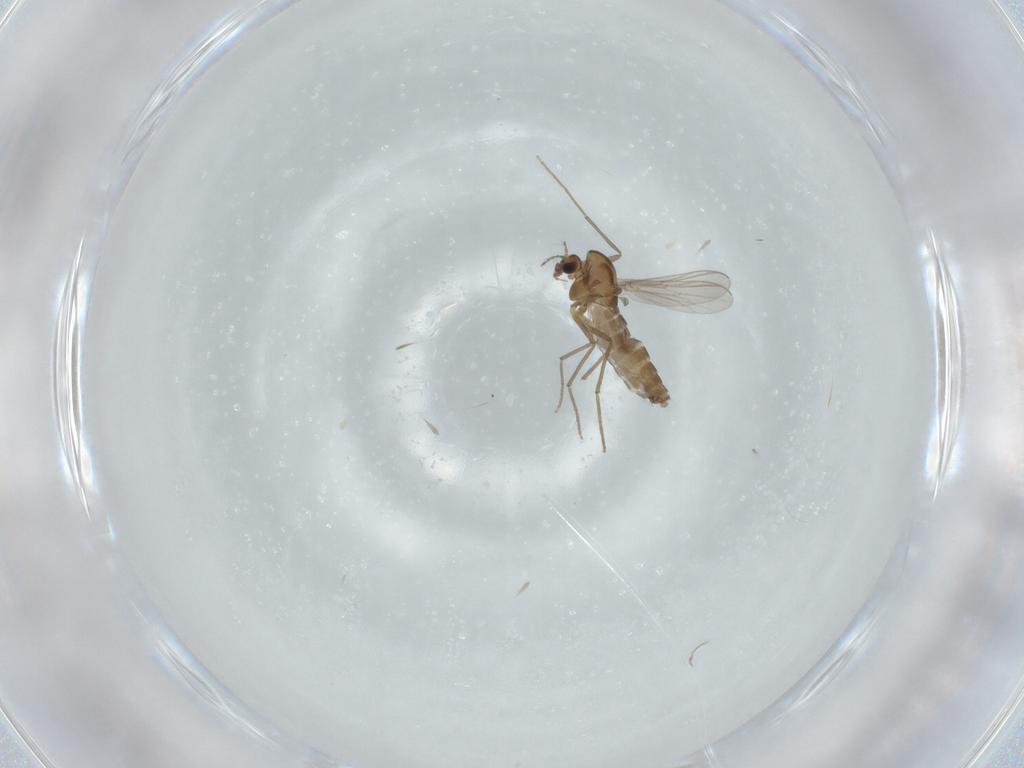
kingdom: Animalia
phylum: Arthropoda
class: Insecta
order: Diptera
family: Chironomidae
